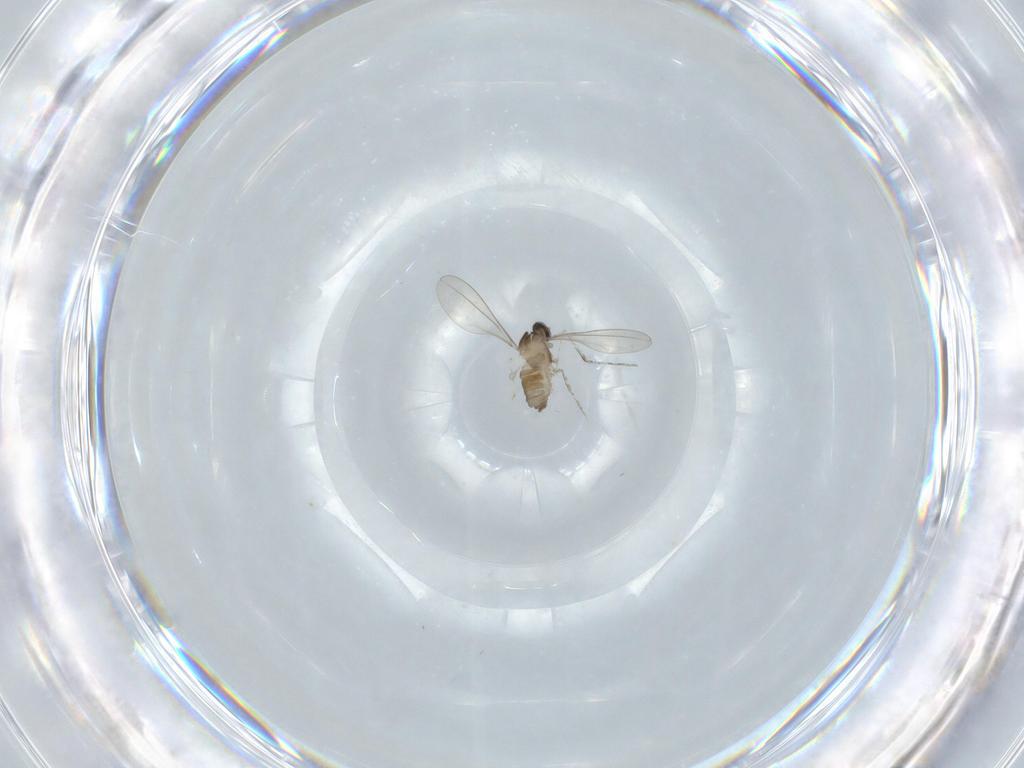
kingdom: Animalia
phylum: Arthropoda
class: Insecta
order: Diptera
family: Cecidomyiidae
